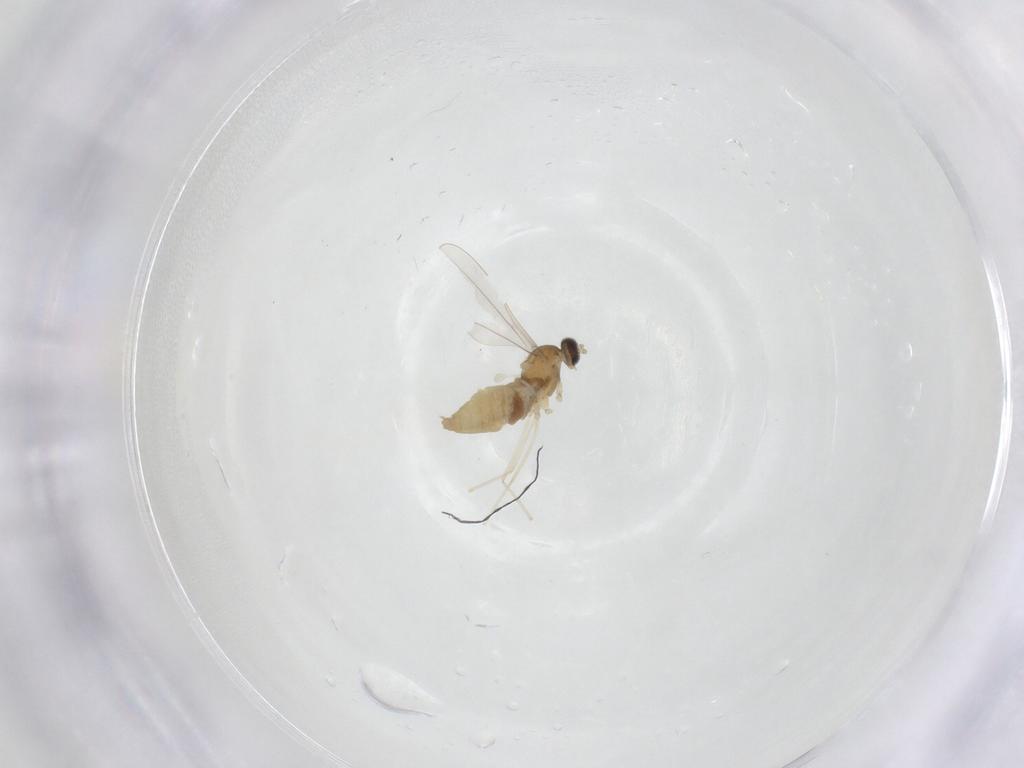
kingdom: Animalia
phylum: Arthropoda
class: Insecta
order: Diptera
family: Cecidomyiidae
